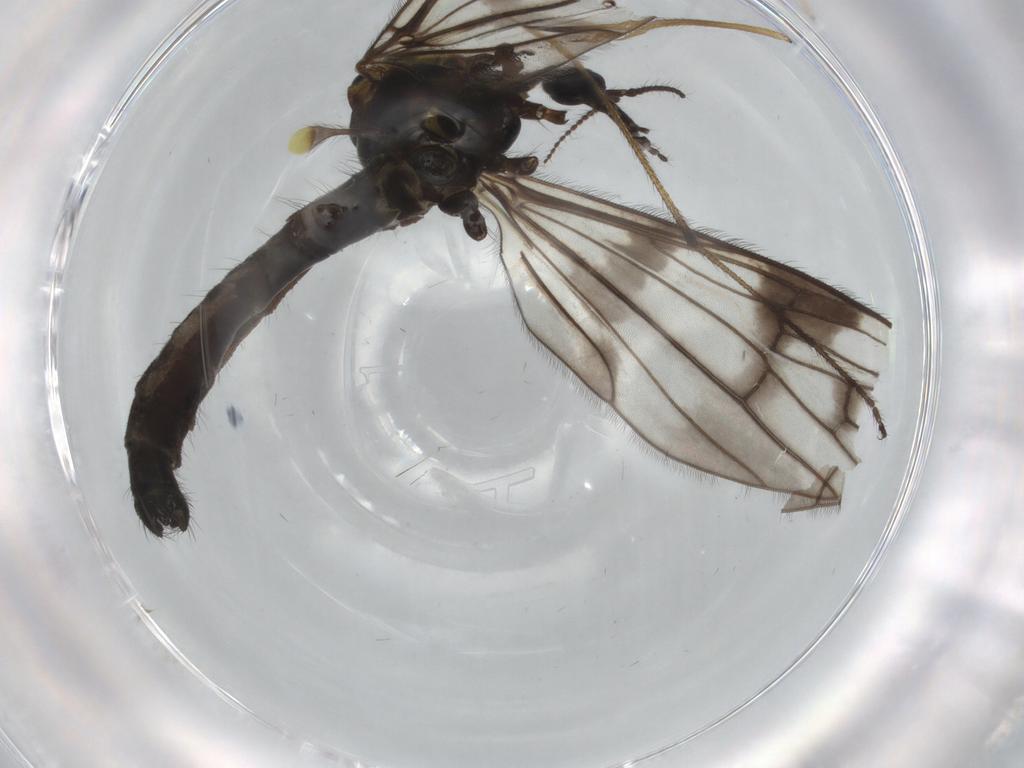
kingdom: Animalia
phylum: Arthropoda
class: Insecta
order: Diptera
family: Limoniidae
